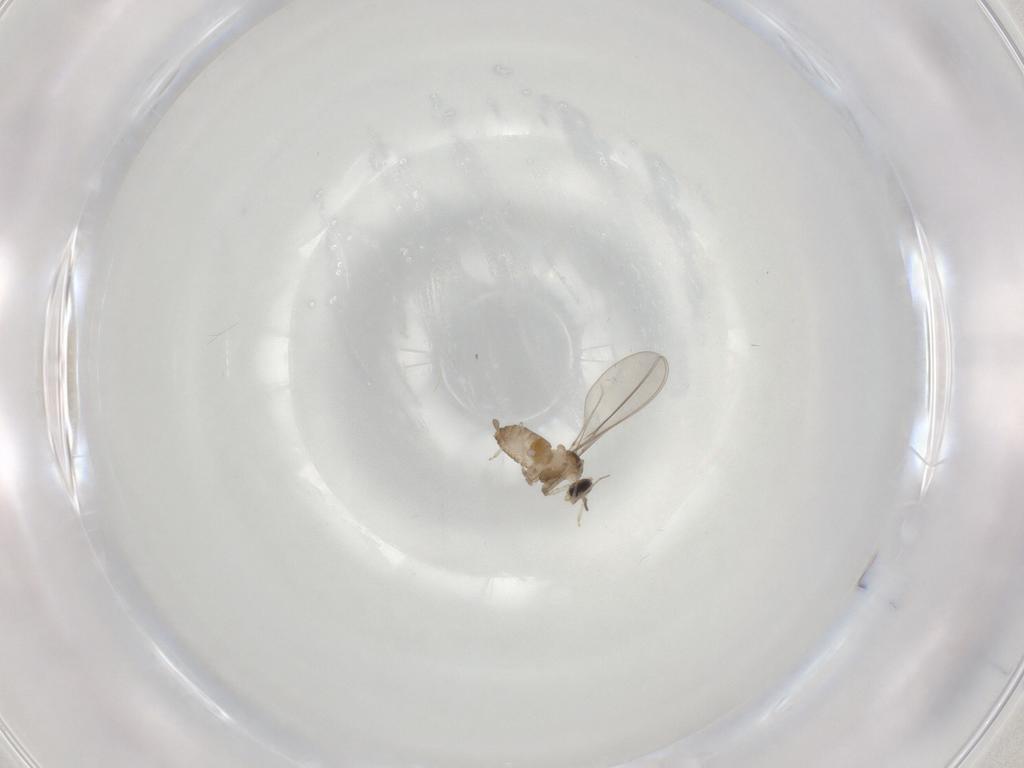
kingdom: Animalia
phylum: Arthropoda
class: Insecta
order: Diptera
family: Cecidomyiidae
